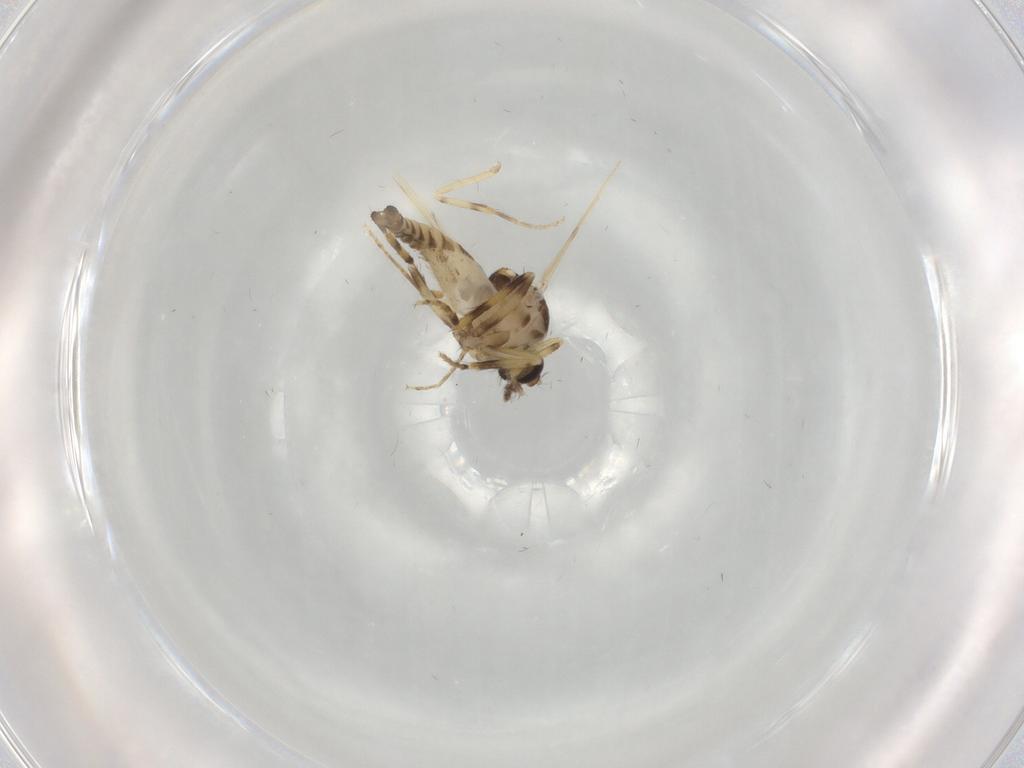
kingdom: Animalia
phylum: Arthropoda
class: Insecta
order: Diptera
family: Ceratopogonidae
